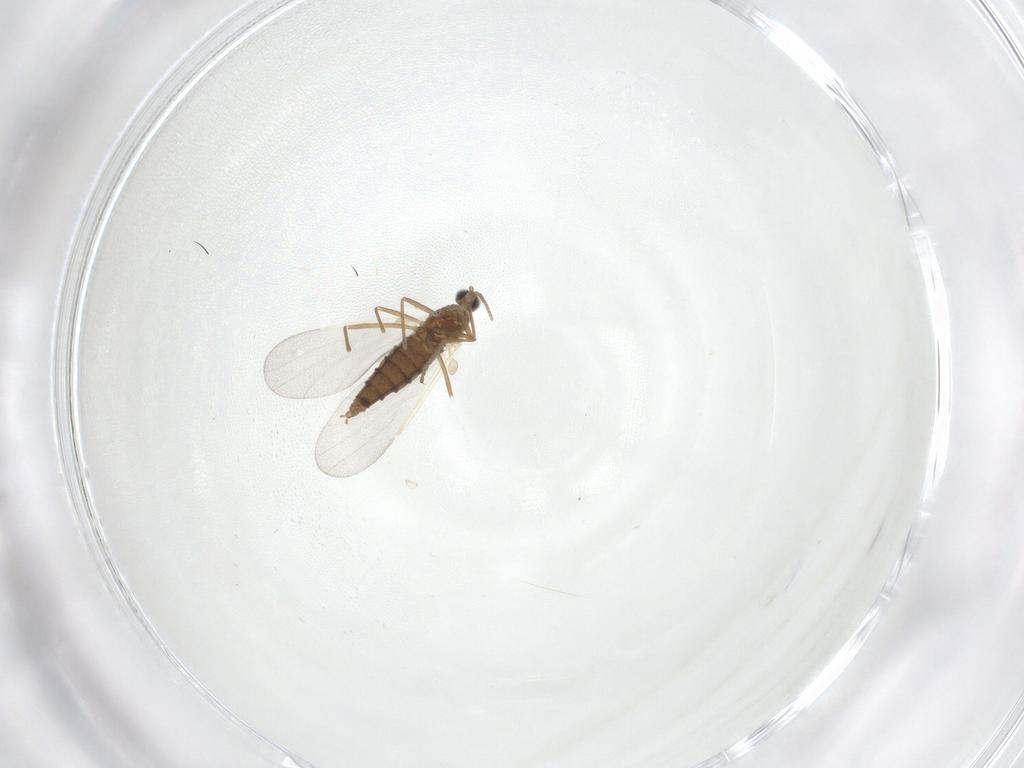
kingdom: Animalia
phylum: Arthropoda
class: Insecta
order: Diptera
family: Cecidomyiidae
